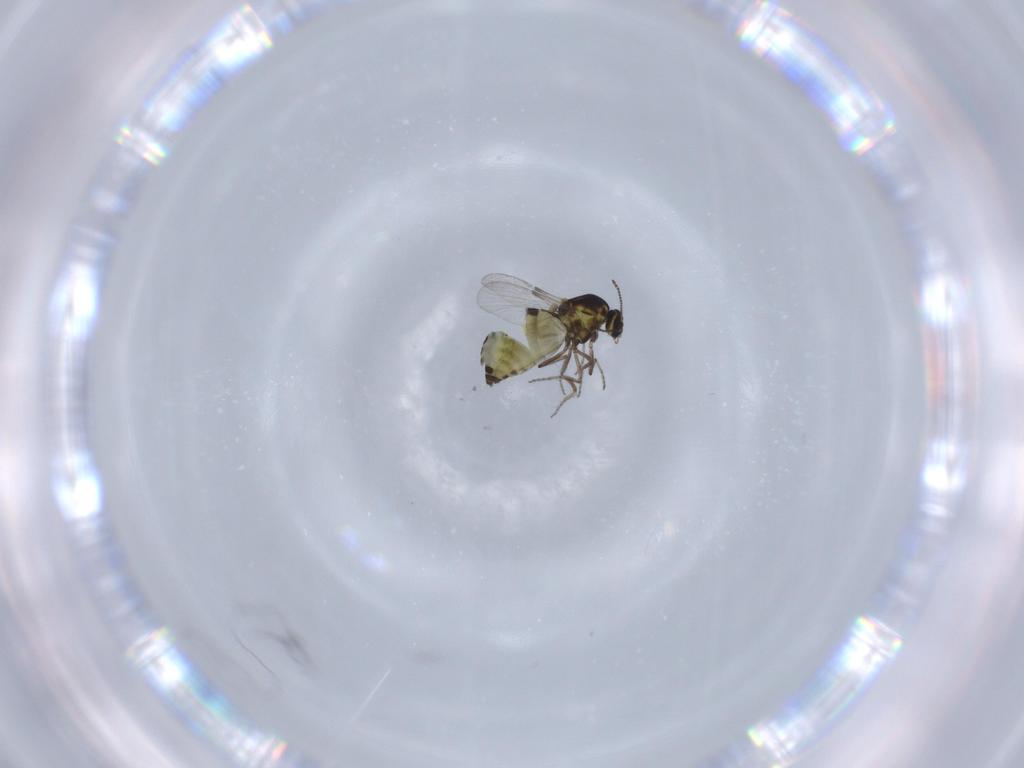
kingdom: Animalia
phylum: Arthropoda
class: Insecta
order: Diptera
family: Ceratopogonidae
